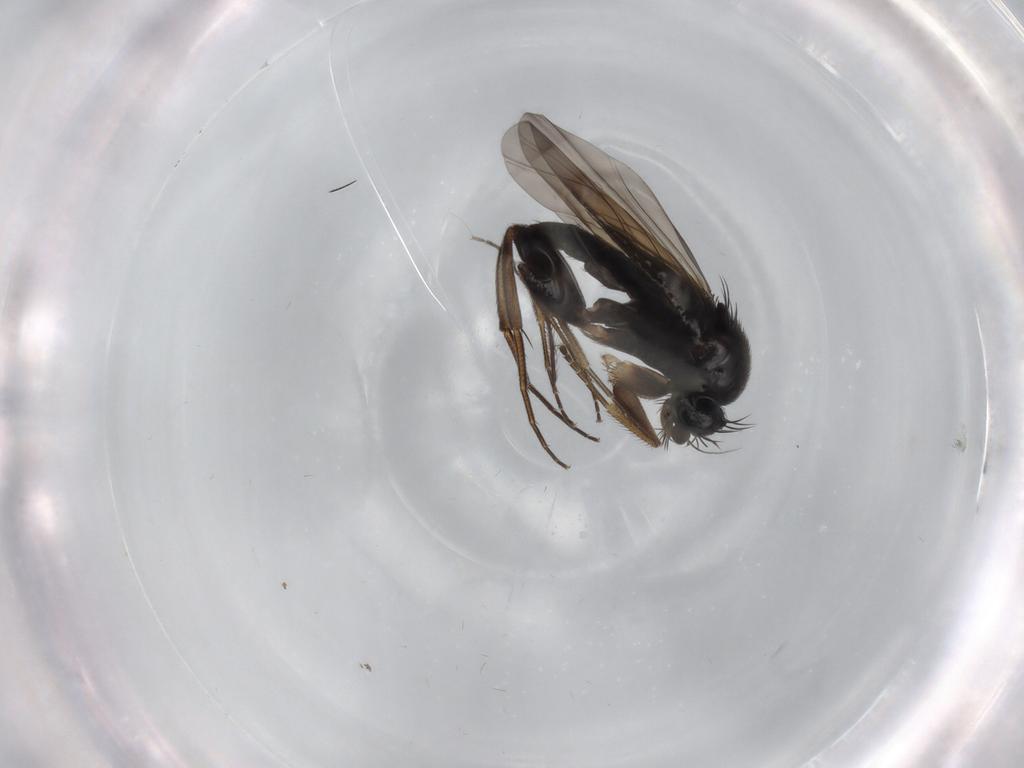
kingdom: Animalia
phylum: Arthropoda
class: Insecta
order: Diptera
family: Phoridae
